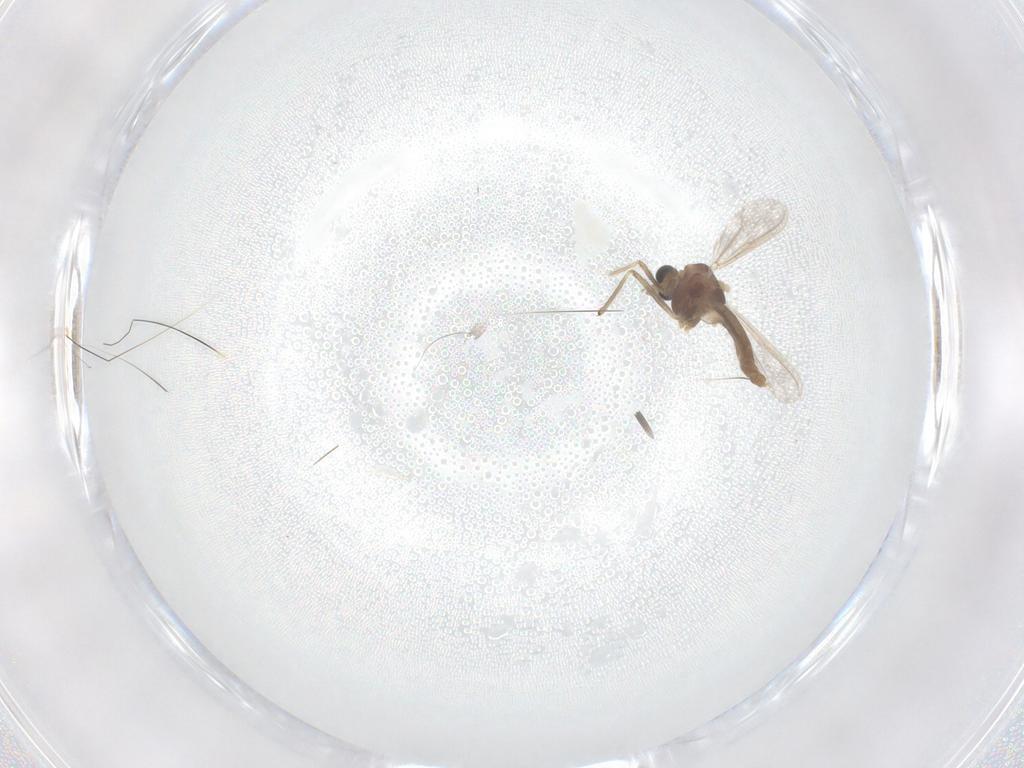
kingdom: Animalia
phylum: Arthropoda
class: Insecta
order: Diptera
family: Phoridae
